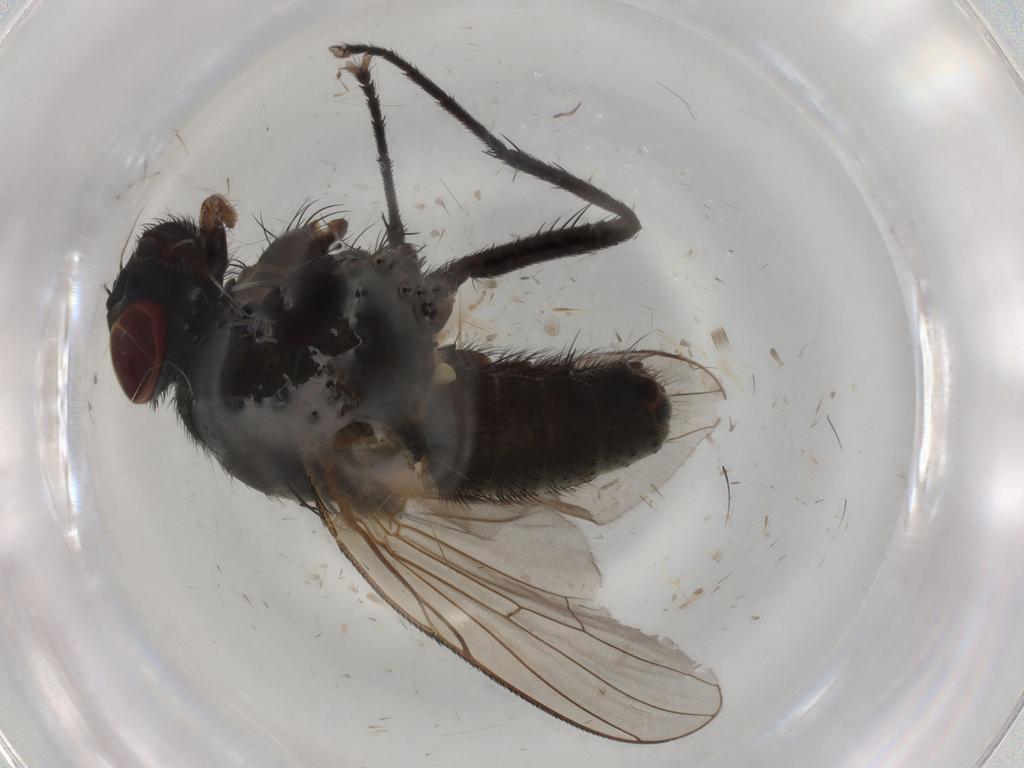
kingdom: Animalia
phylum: Arthropoda
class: Insecta
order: Diptera
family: Muscidae
